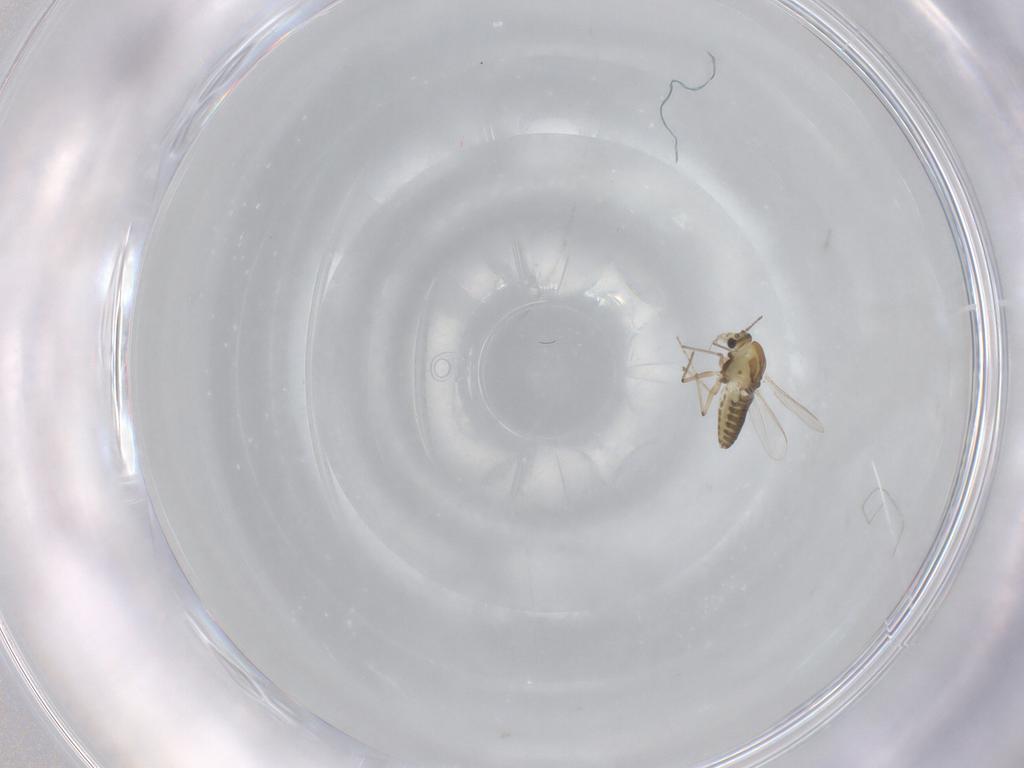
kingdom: Animalia
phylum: Arthropoda
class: Insecta
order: Diptera
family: Chironomidae
